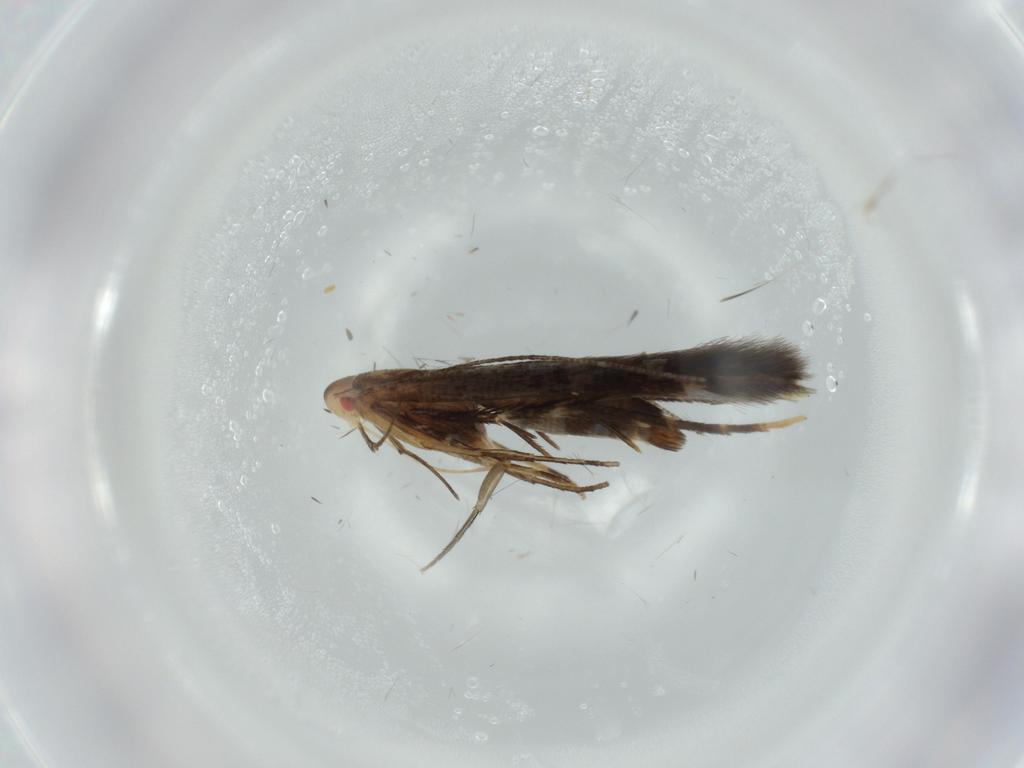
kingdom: Animalia
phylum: Arthropoda
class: Insecta
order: Lepidoptera
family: Cosmopterigidae
